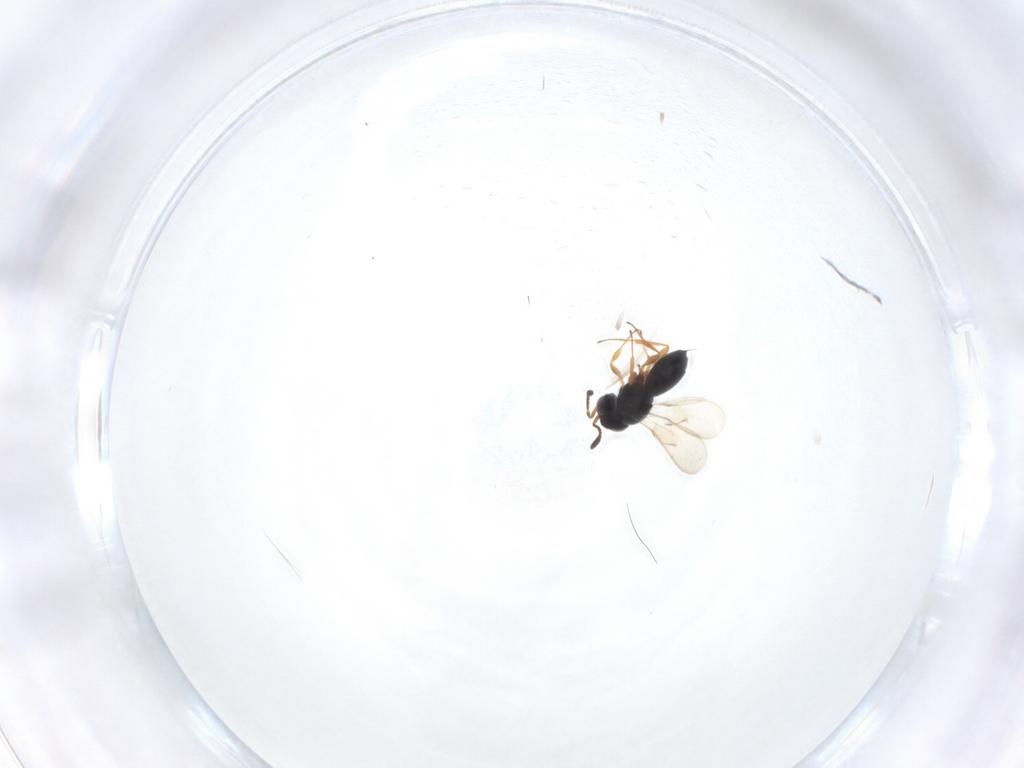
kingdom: Animalia
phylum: Arthropoda
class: Insecta
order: Hymenoptera
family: Scelionidae
